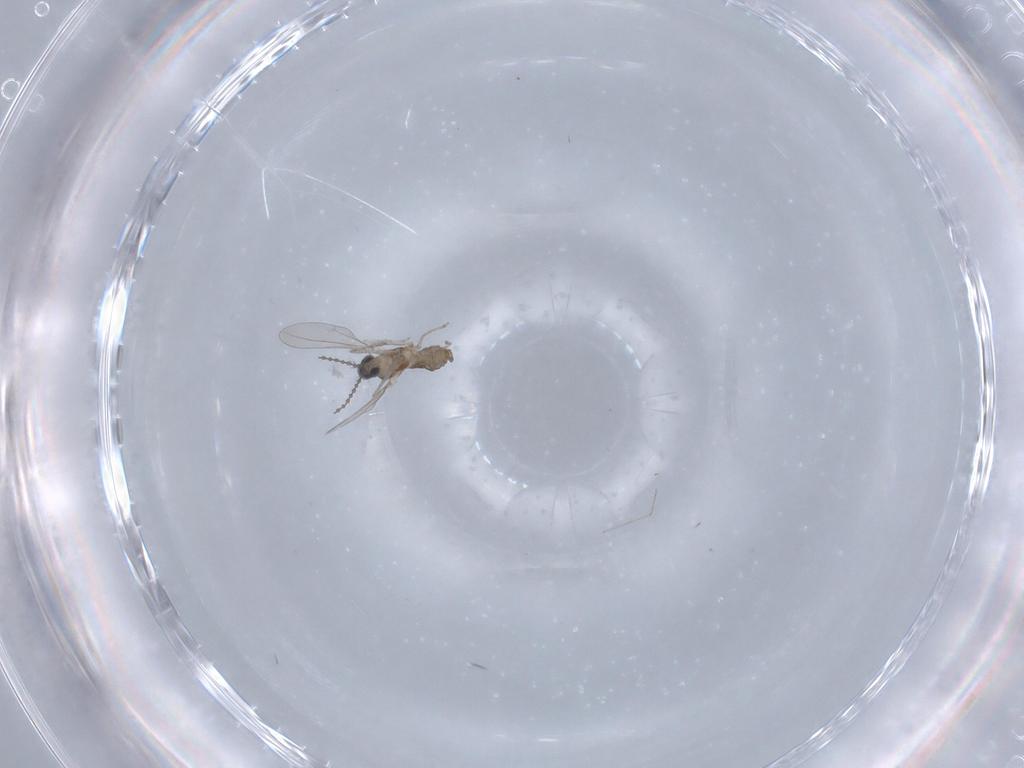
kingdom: Animalia
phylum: Arthropoda
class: Insecta
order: Diptera
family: Cecidomyiidae
